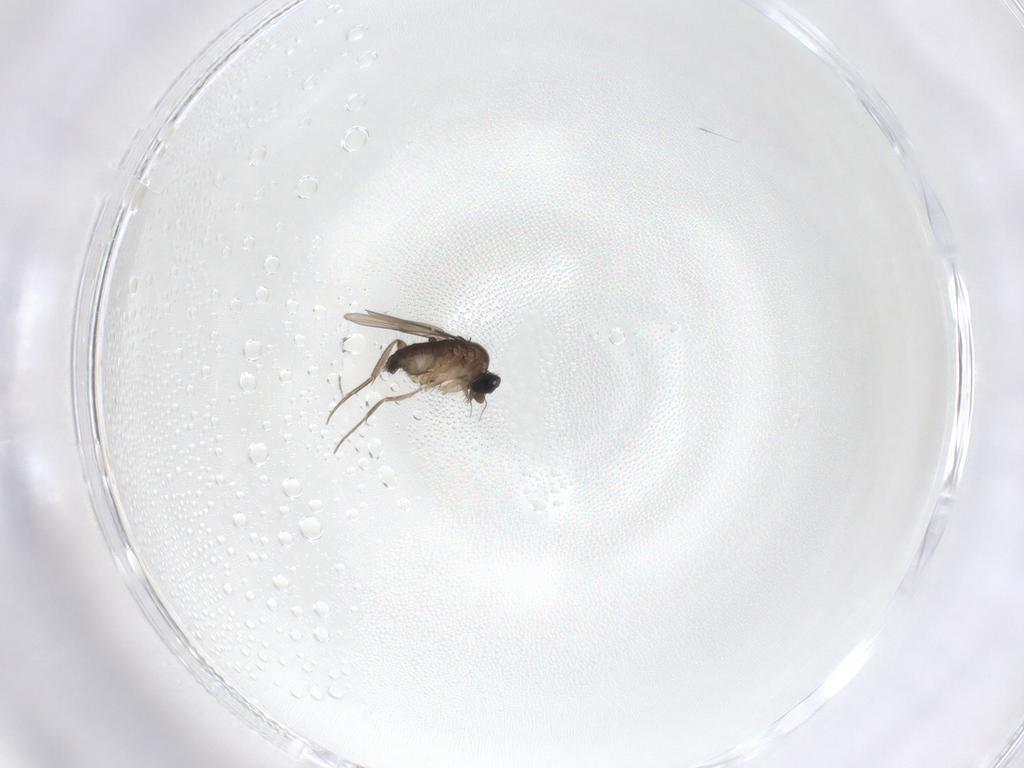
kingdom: Animalia
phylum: Arthropoda
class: Insecta
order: Diptera
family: Phoridae
